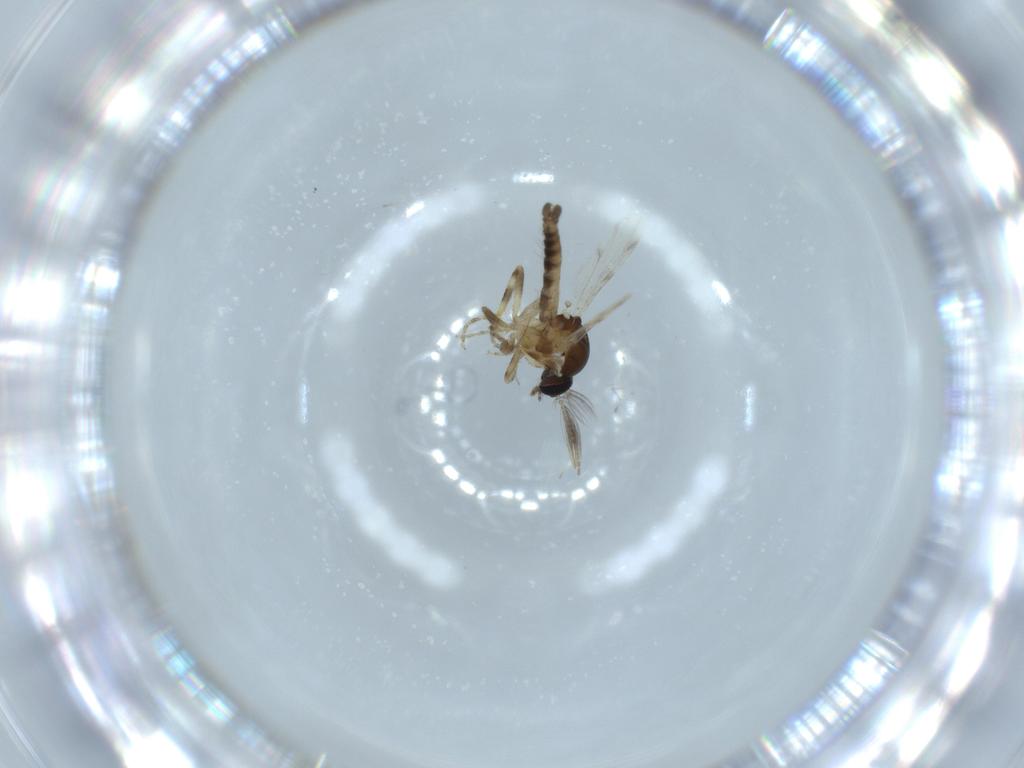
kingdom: Animalia
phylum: Arthropoda
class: Insecta
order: Diptera
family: Ceratopogonidae
